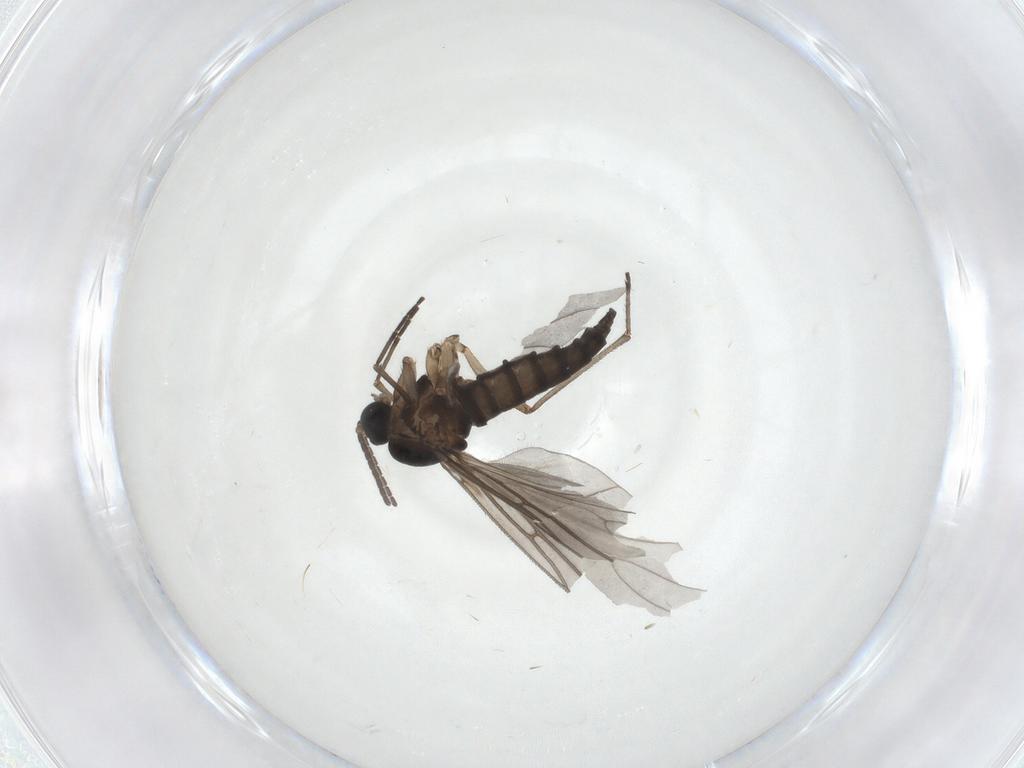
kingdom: Animalia
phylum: Arthropoda
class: Insecta
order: Diptera
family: Sciaridae
